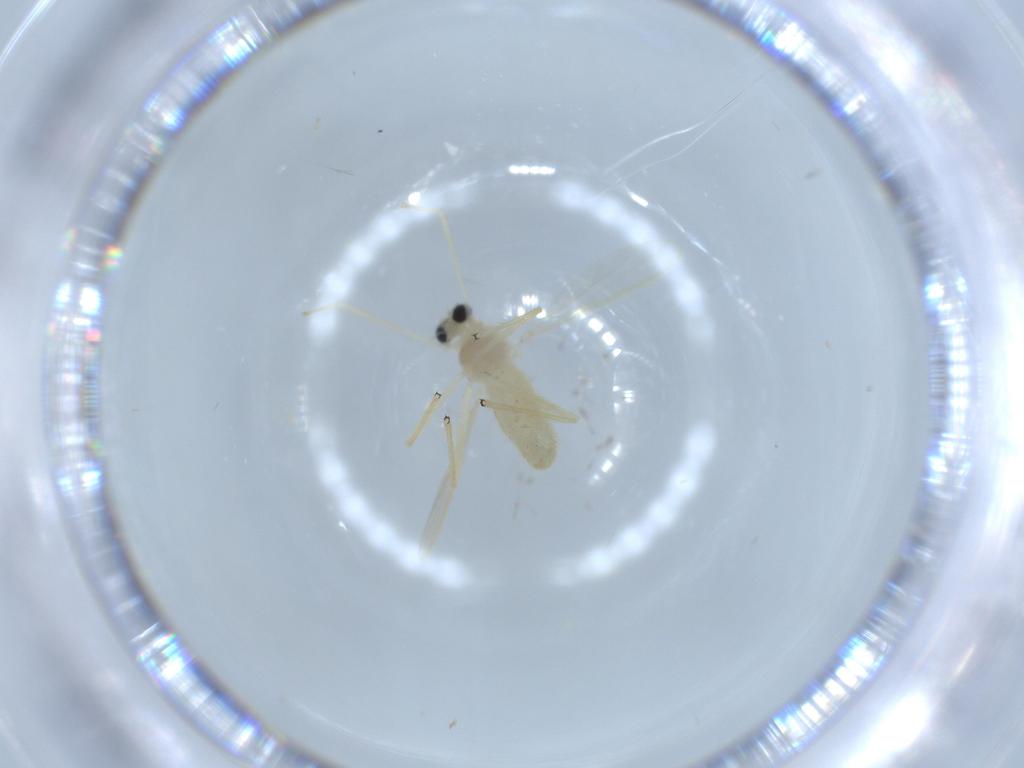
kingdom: Animalia
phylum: Arthropoda
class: Insecta
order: Diptera
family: Chironomidae
